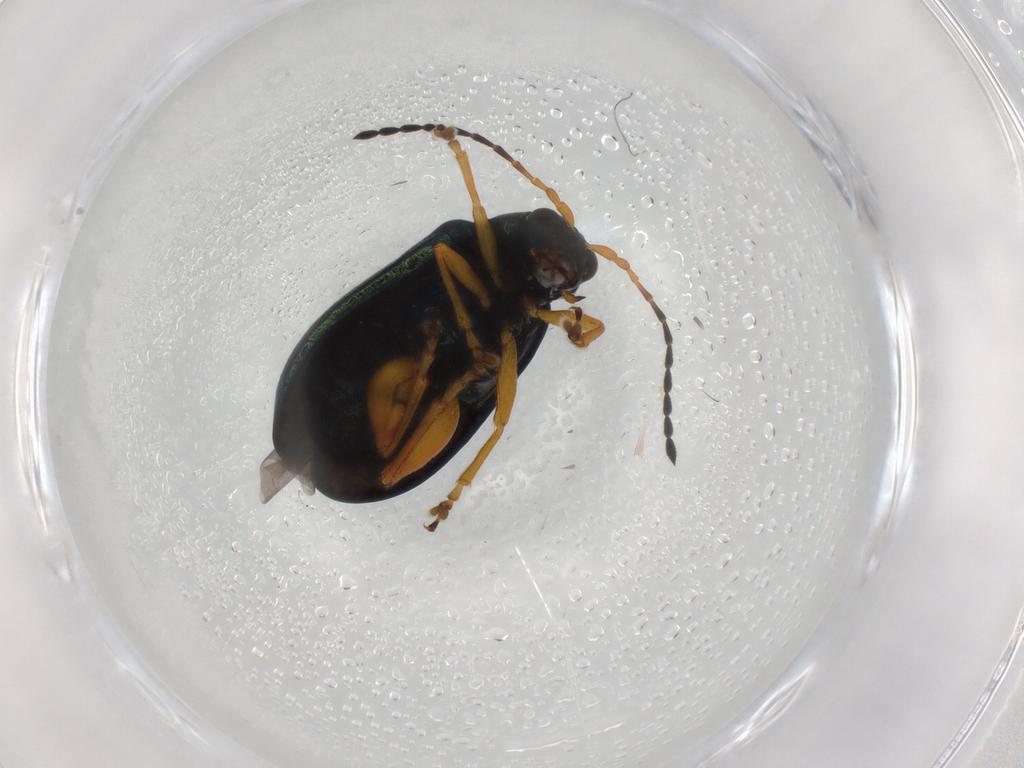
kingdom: Animalia
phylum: Arthropoda
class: Insecta
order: Coleoptera
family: Chrysomelidae
